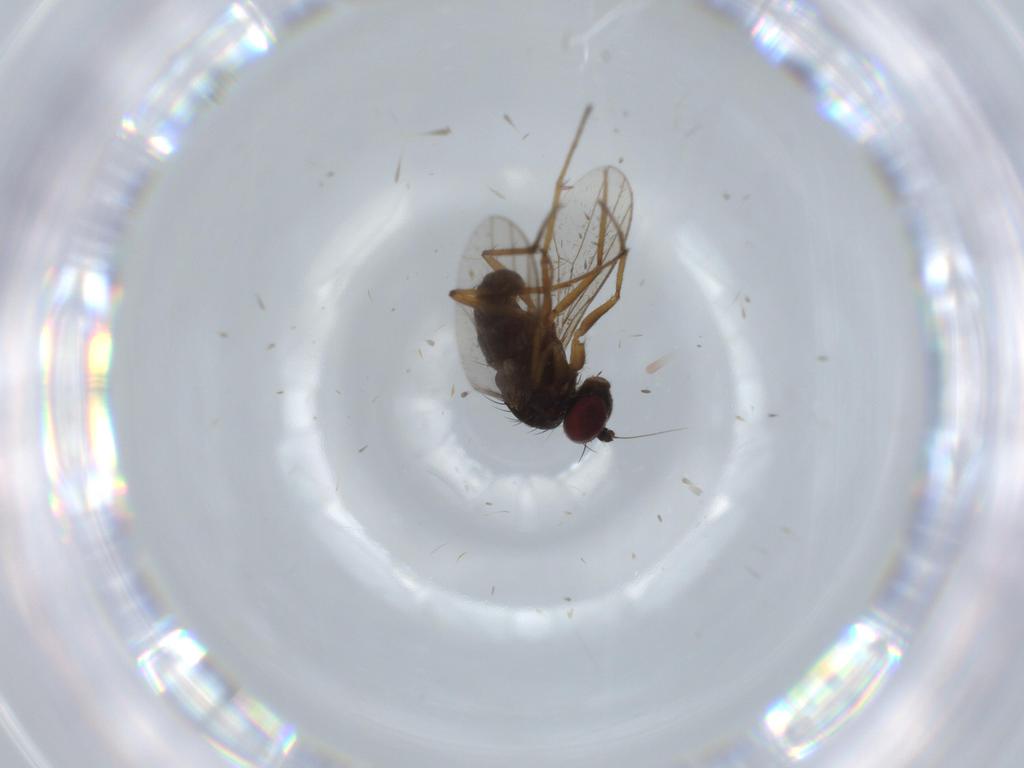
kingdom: Animalia
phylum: Arthropoda
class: Insecta
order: Diptera
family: Dolichopodidae
